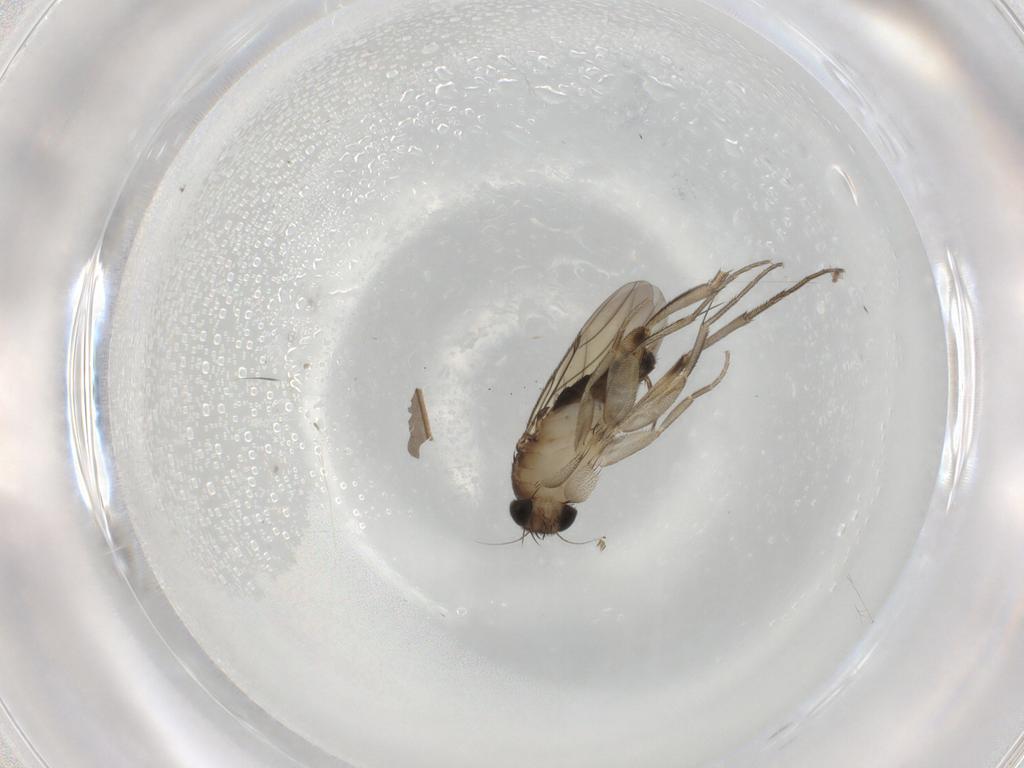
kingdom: Animalia
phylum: Arthropoda
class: Insecta
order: Diptera
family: Phoridae
